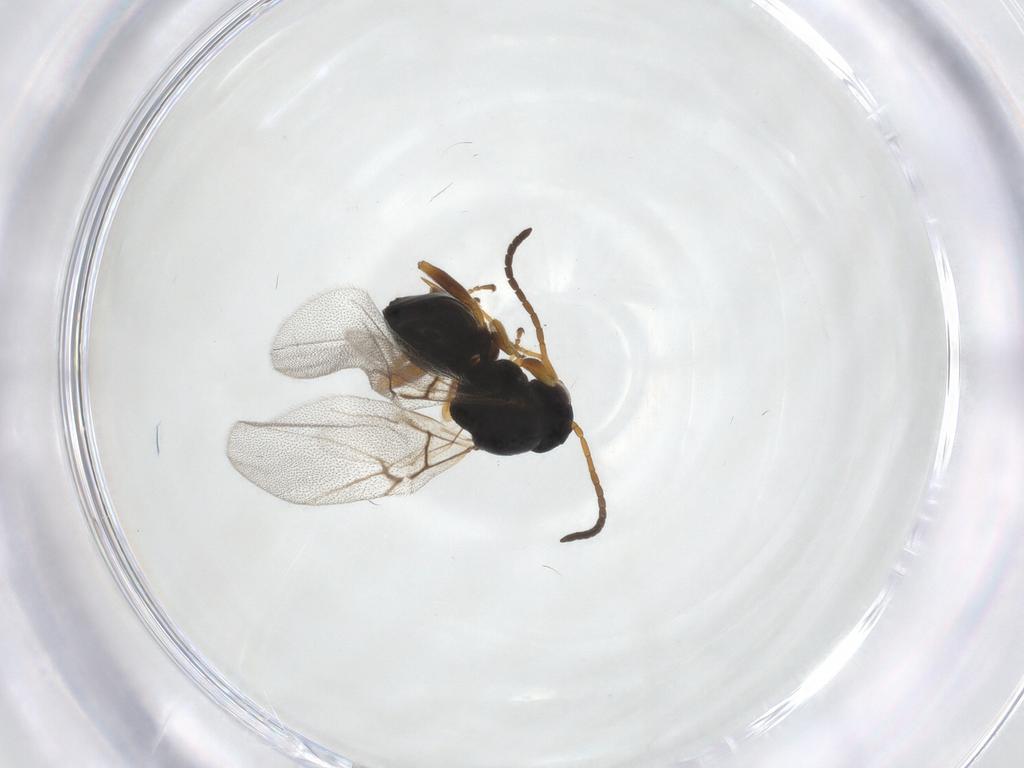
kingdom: Animalia
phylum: Arthropoda
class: Insecta
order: Hymenoptera
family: Cynipidae
